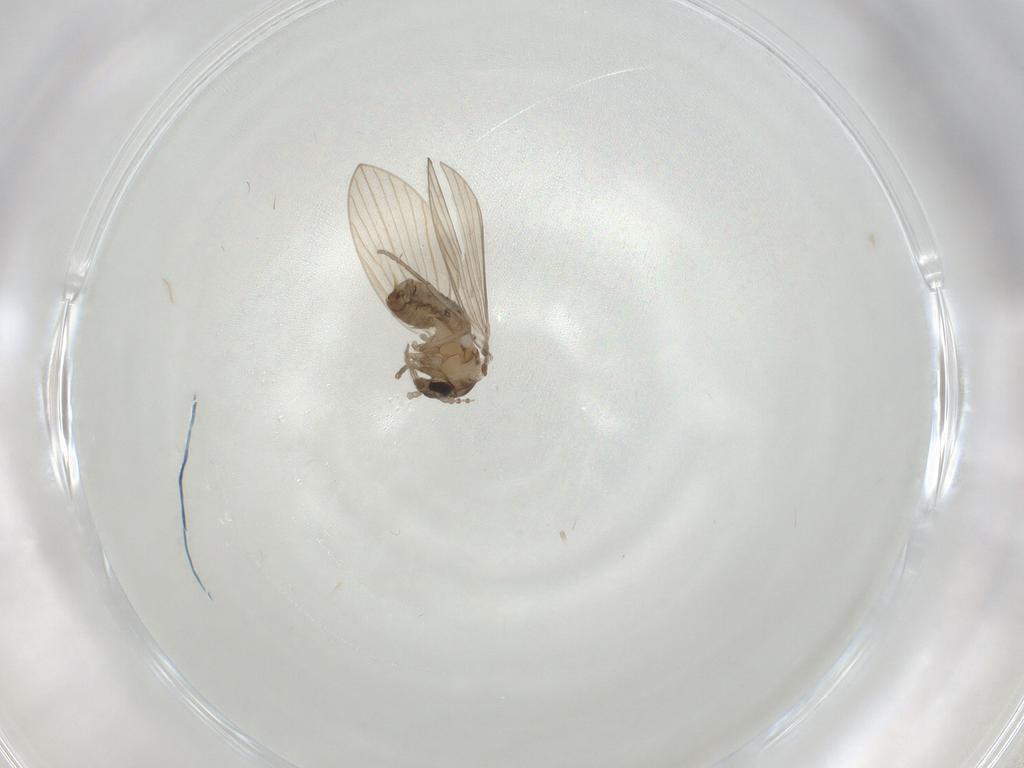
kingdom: Animalia
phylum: Arthropoda
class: Insecta
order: Diptera
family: Psychodidae
